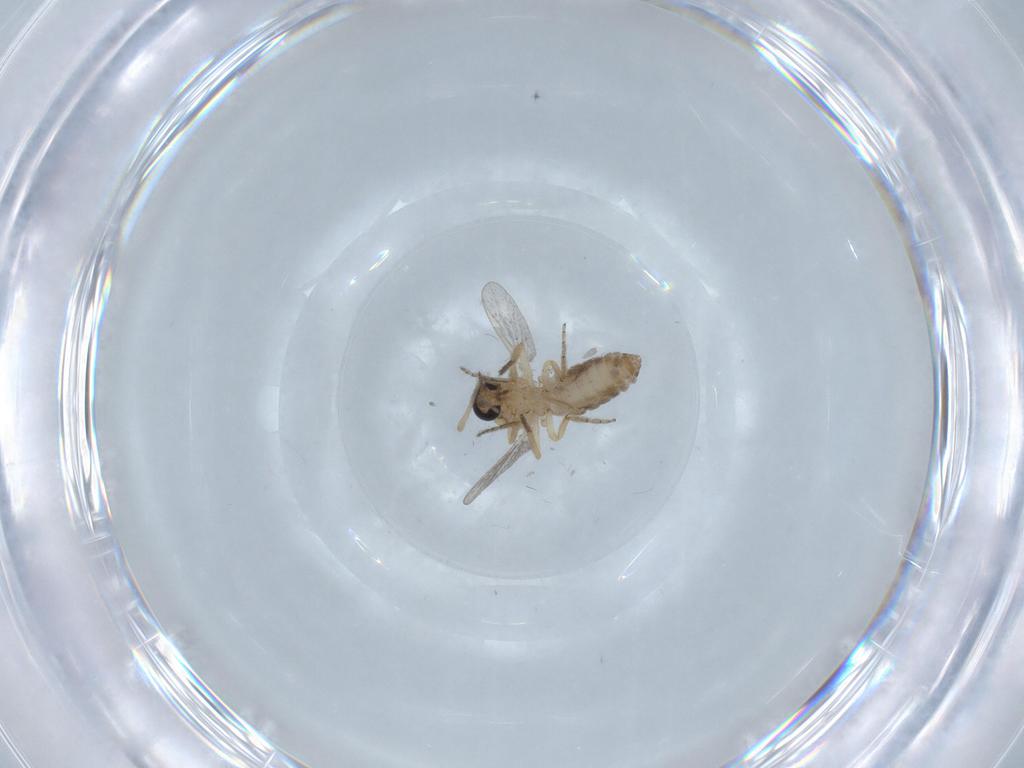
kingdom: Animalia
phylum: Arthropoda
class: Insecta
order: Diptera
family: Ceratopogonidae
